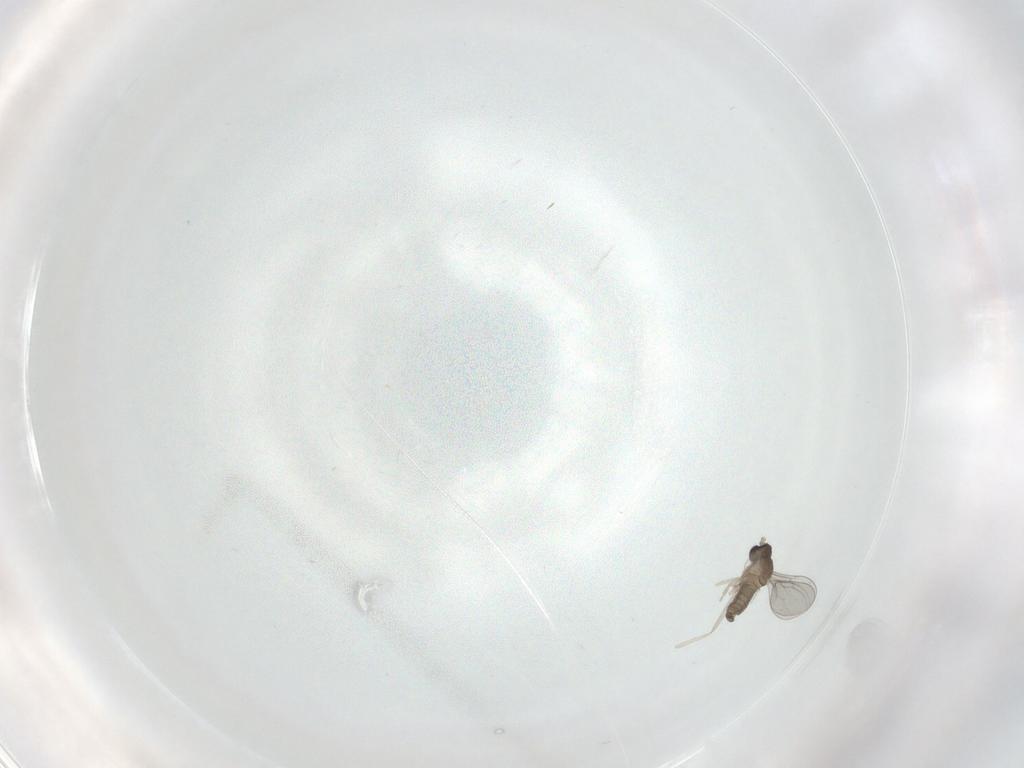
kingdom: Animalia
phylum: Arthropoda
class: Insecta
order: Diptera
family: Cecidomyiidae
